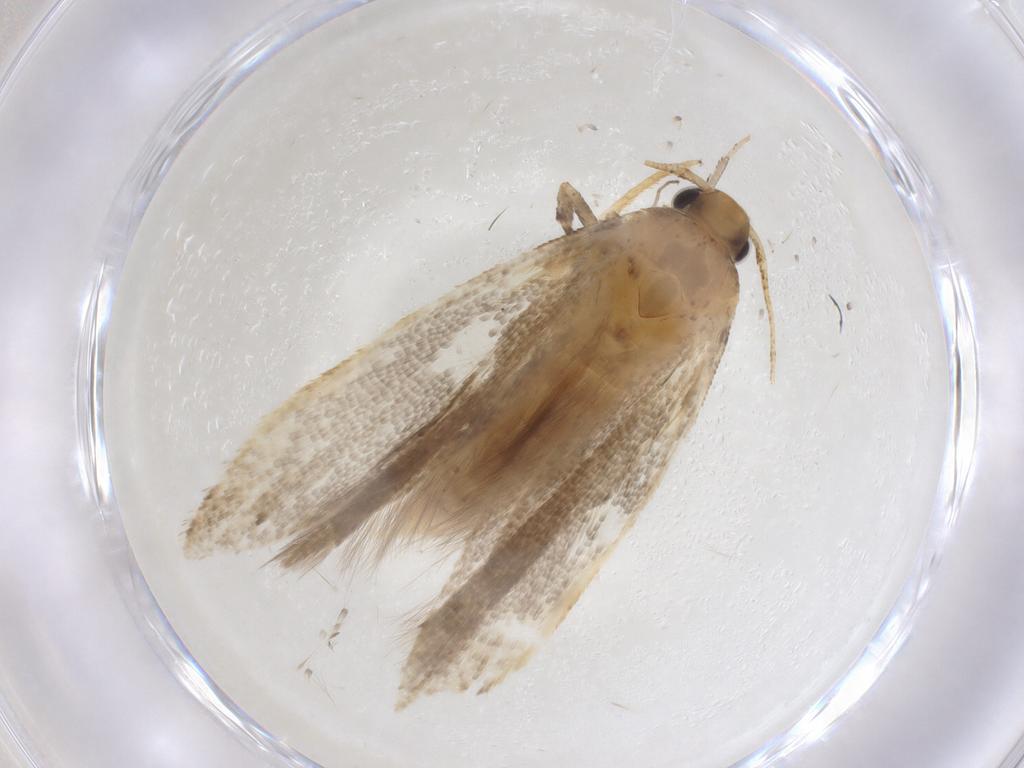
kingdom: Animalia
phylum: Arthropoda
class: Insecta
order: Lepidoptera
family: Gelechiidae
